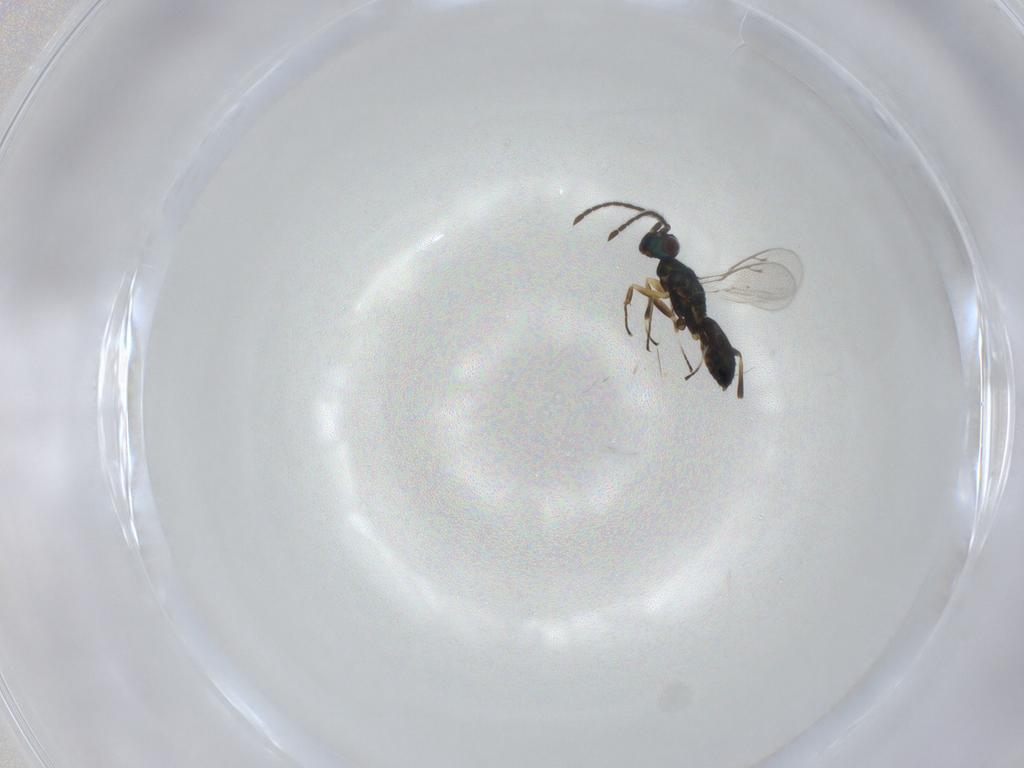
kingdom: Animalia
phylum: Arthropoda
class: Insecta
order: Hymenoptera
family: Eupelmidae
